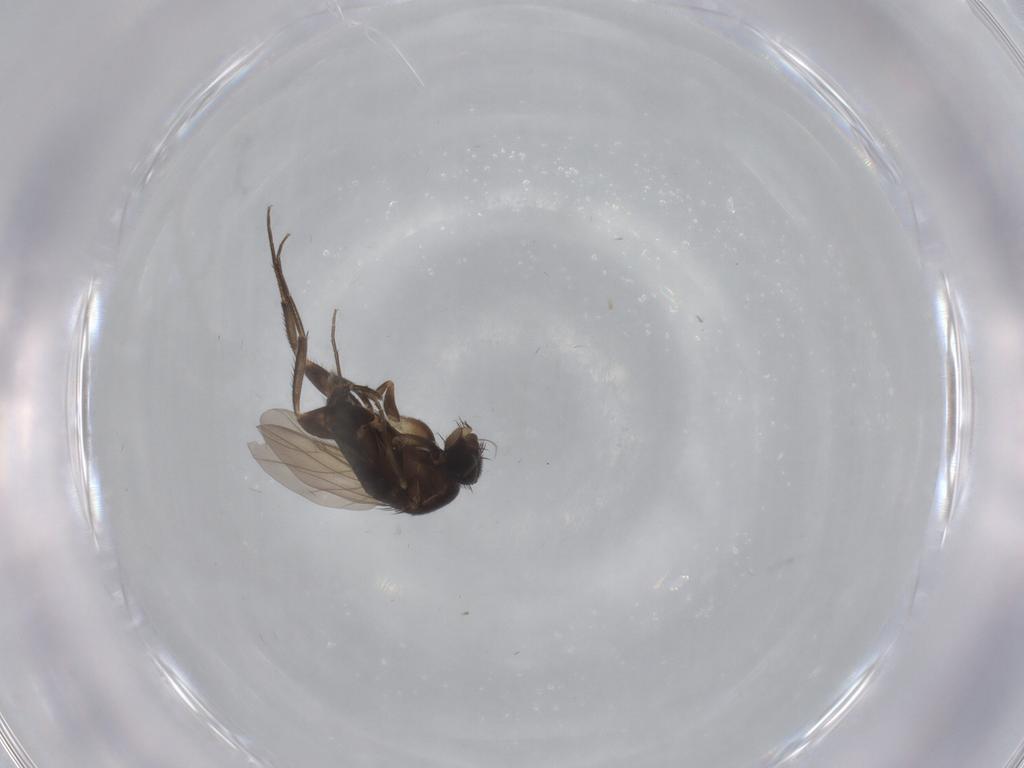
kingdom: Animalia
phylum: Arthropoda
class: Insecta
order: Diptera
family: Phoridae
